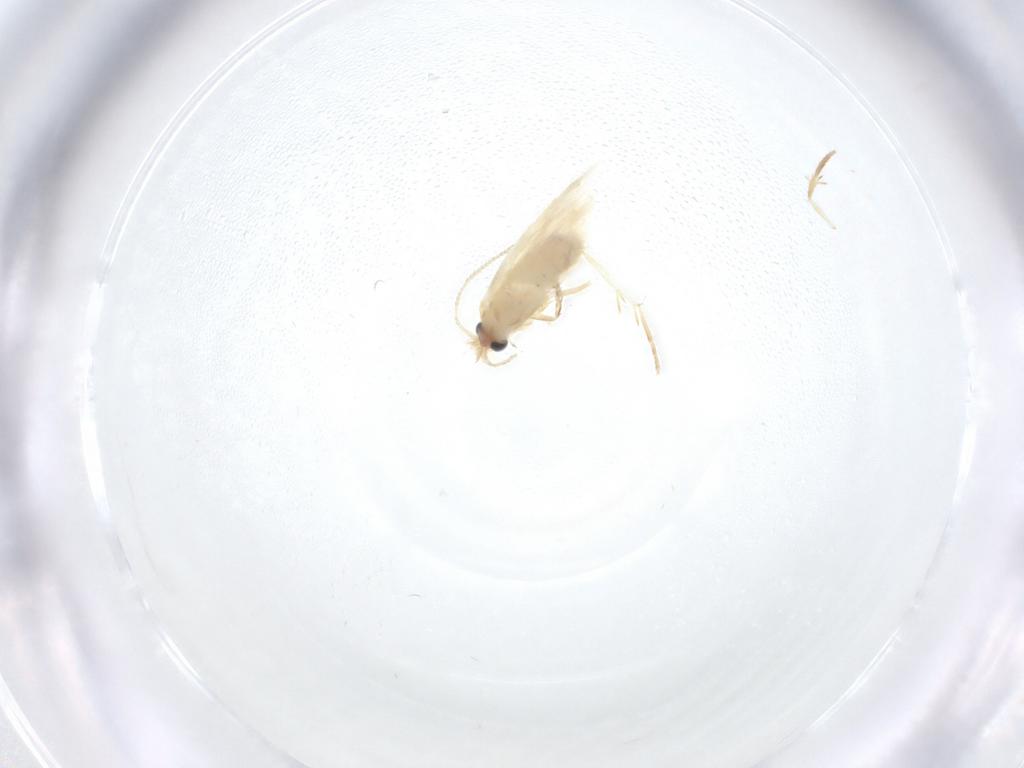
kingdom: Animalia
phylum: Arthropoda
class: Insecta
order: Lepidoptera
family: Nepticulidae
